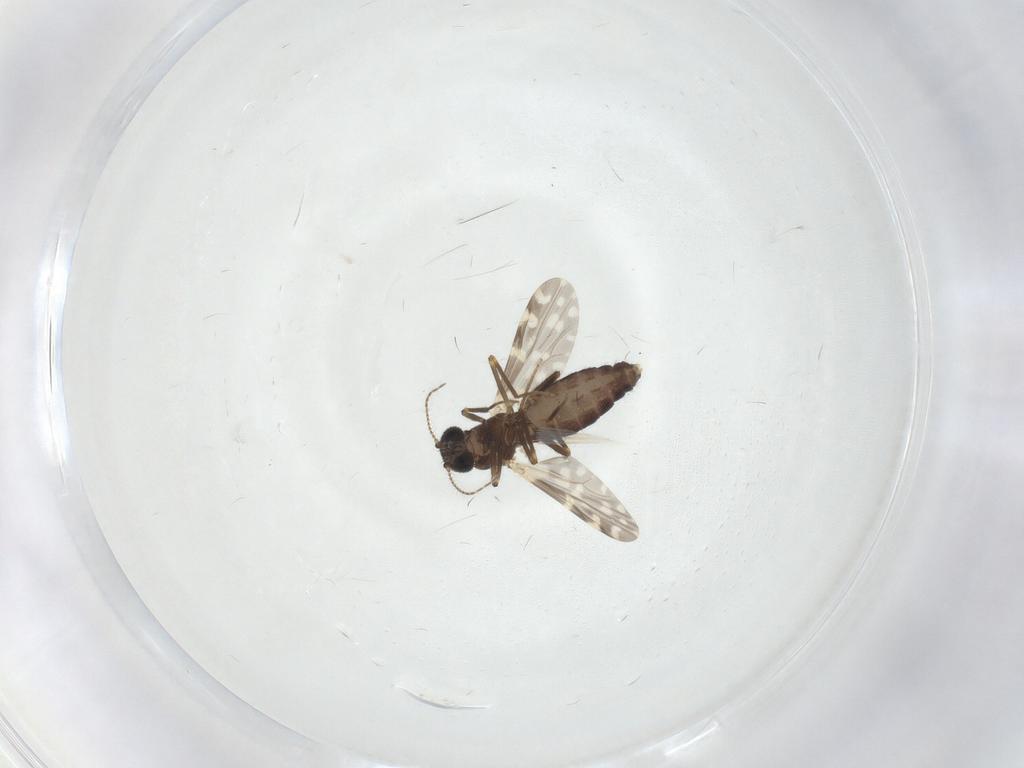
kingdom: Animalia
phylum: Arthropoda
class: Insecta
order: Diptera
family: Ceratopogonidae
